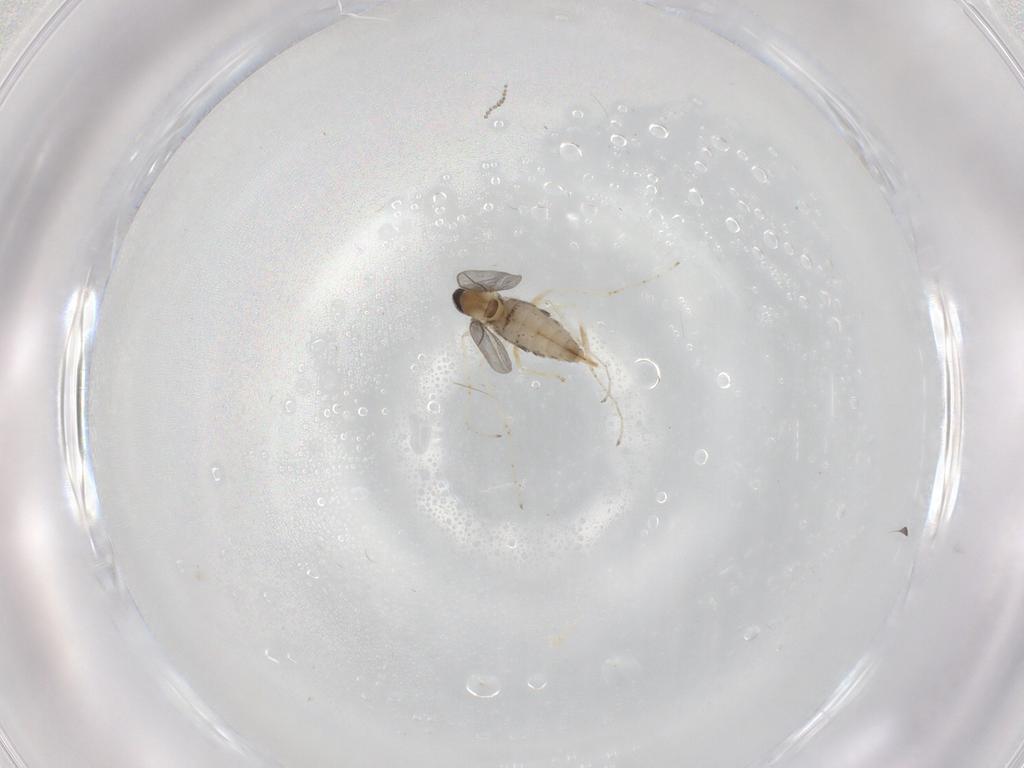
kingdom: Animalia
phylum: Arthropoda
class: Insecta
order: Diptera
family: Cecidomyiidae
